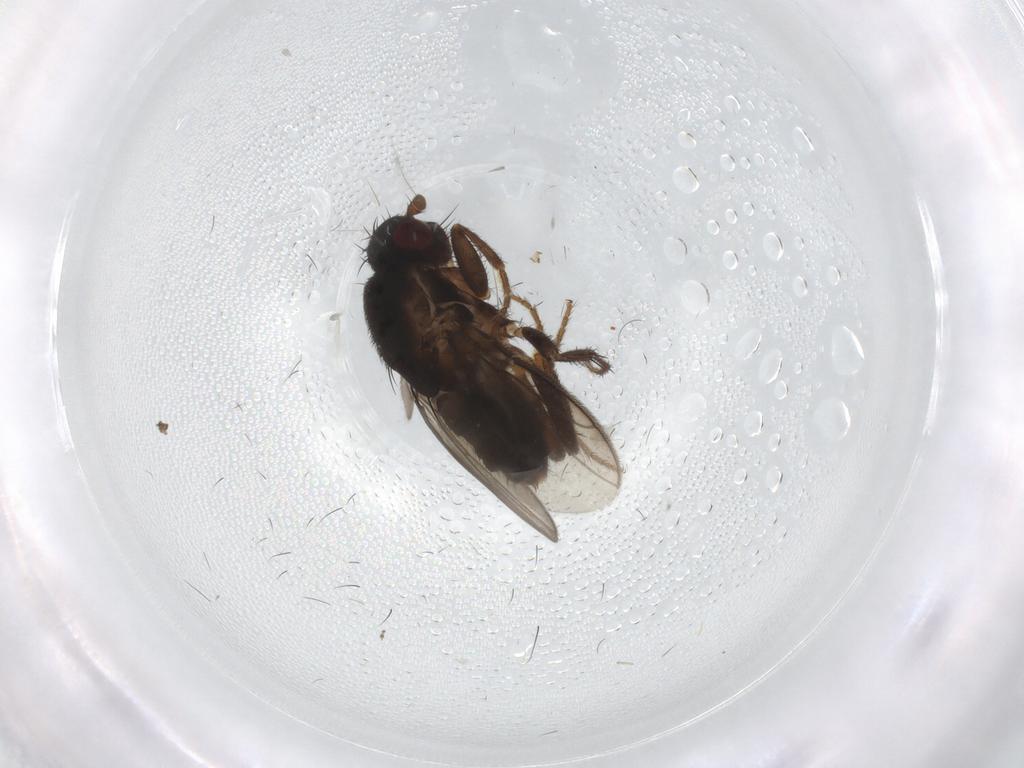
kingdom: Animalia
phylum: Arthropoda
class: Insecta
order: Diptera
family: Sphaeroceridae
